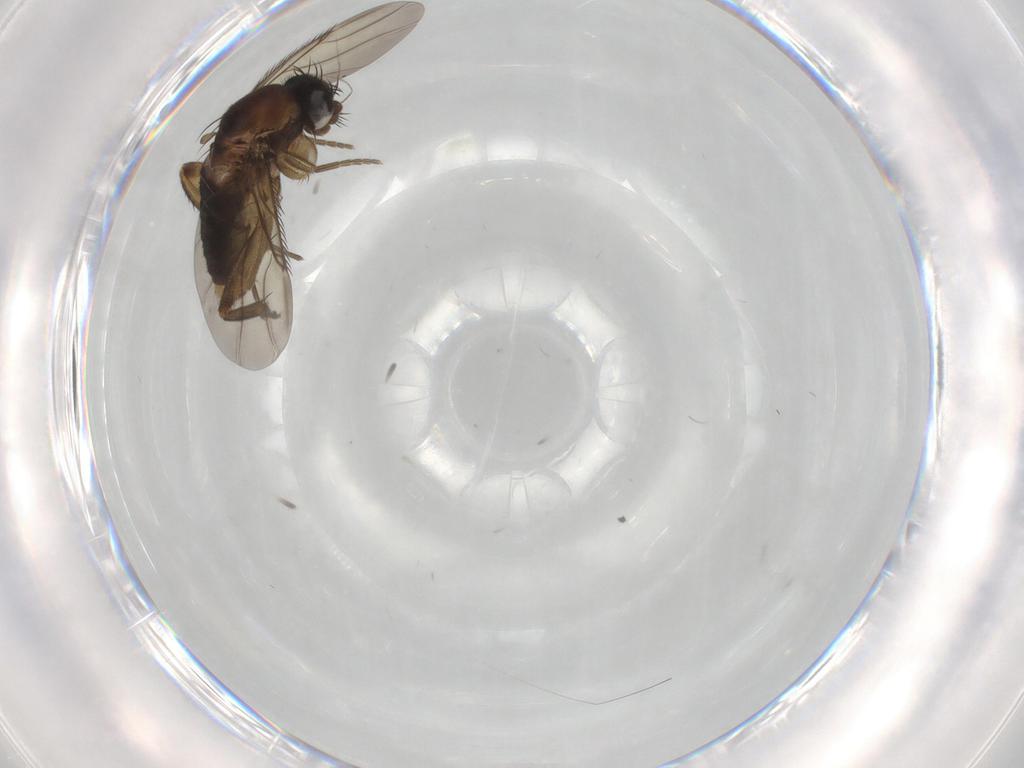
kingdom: Animalia
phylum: Arthropoda
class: Insecta
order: Diptera
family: Phoridae
